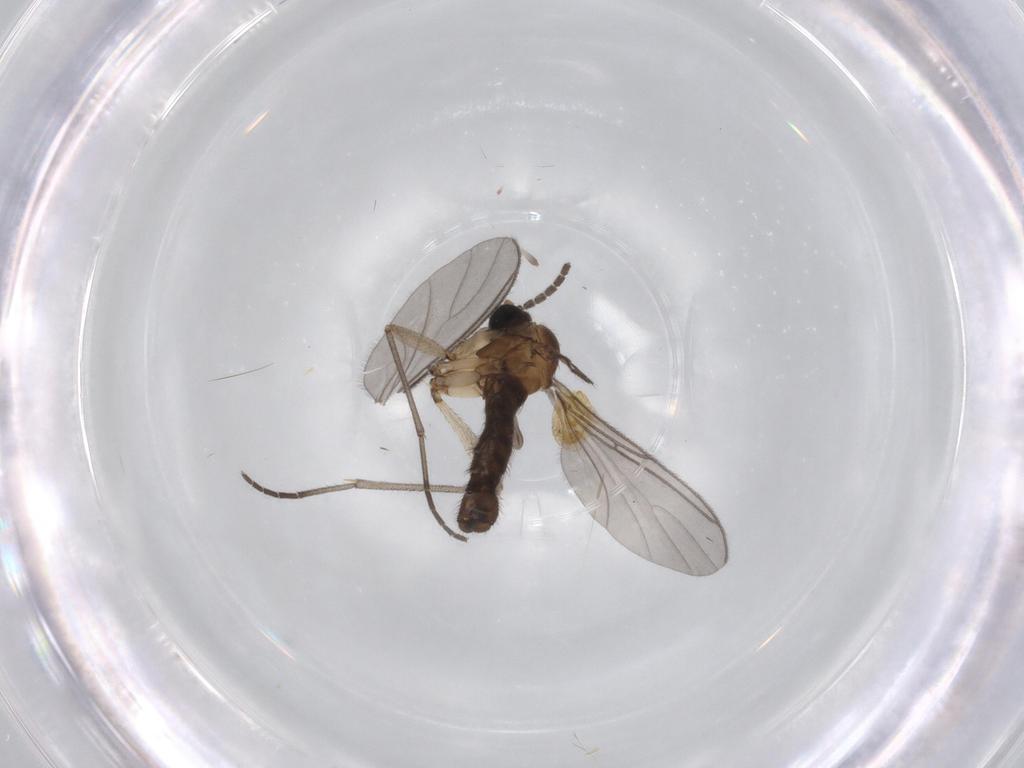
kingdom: Animalia
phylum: Arthropoda
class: Insecta
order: Diptera
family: Sciaridae
